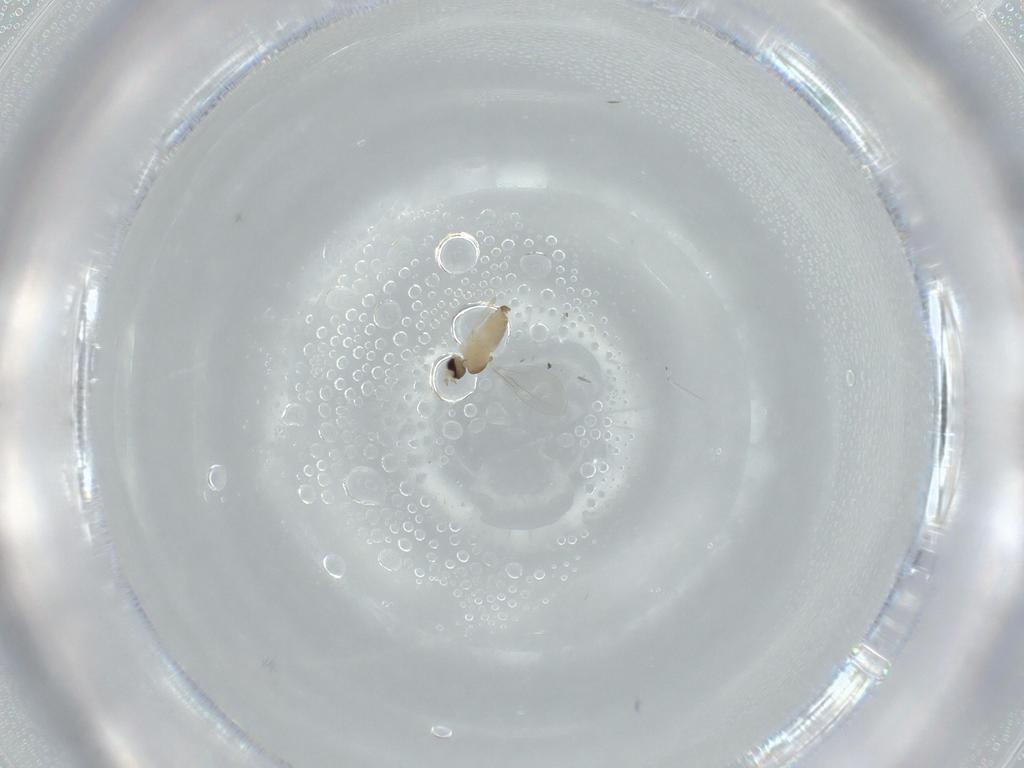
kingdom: Animalia
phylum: Arthropoda
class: Insecta
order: Diptera
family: Cecidomyiidae
